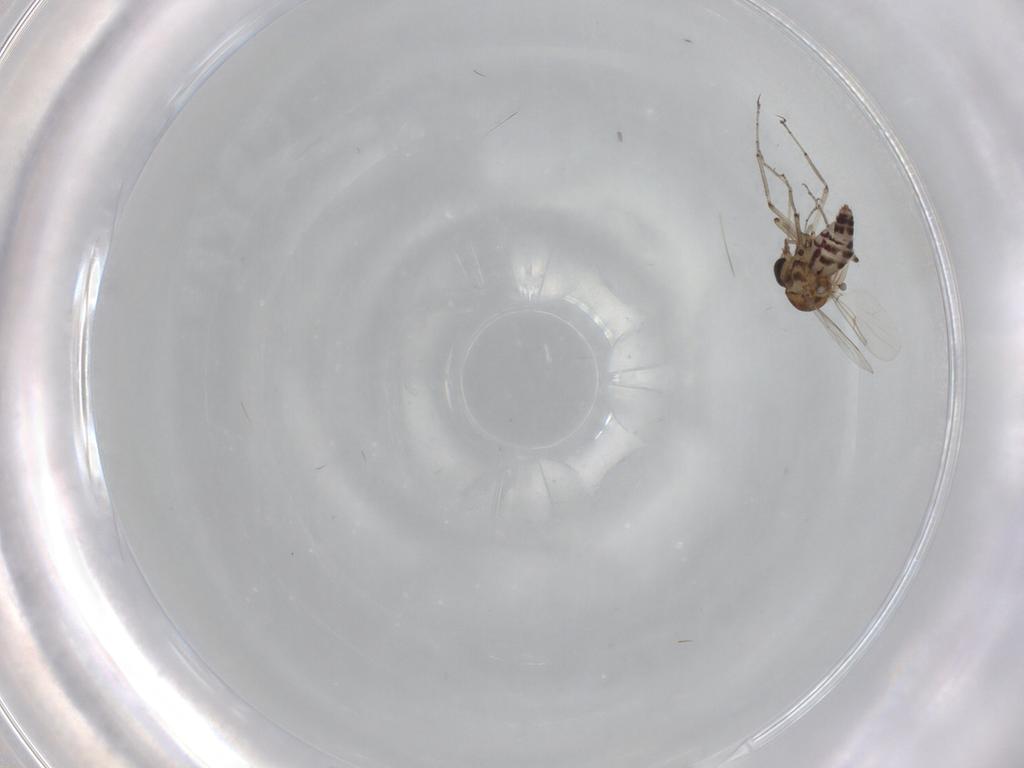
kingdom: Animalia
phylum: Arthropoda
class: Insecta
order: Diptera
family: Ceratopogonidae
